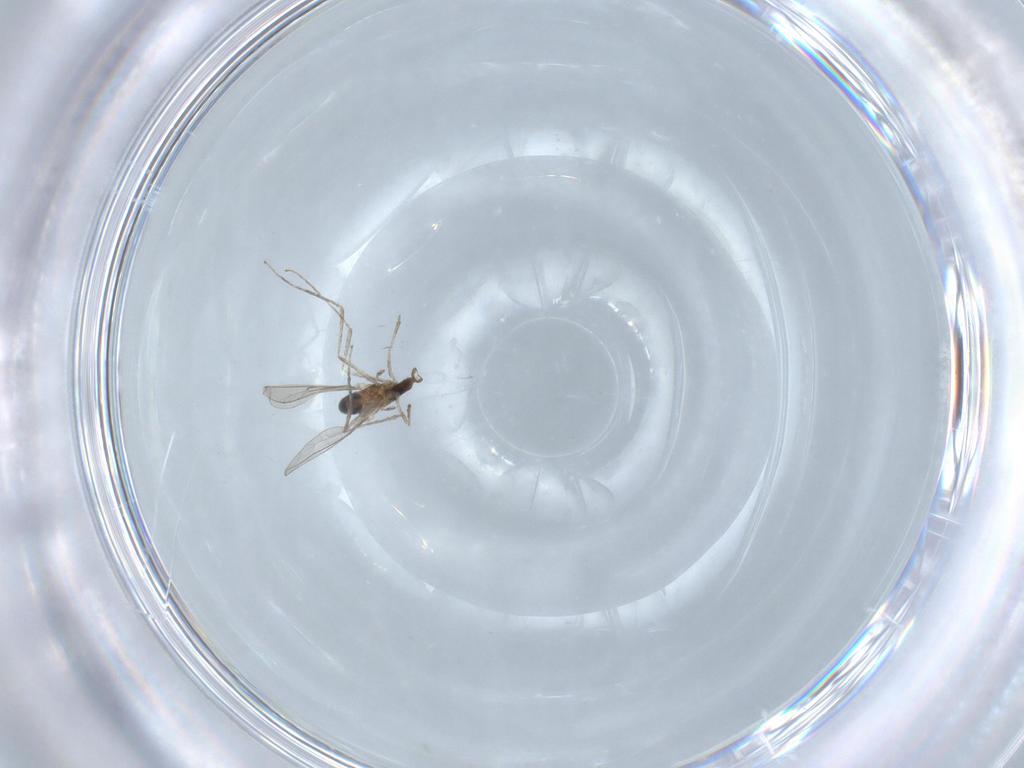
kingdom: Animalia
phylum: Arthropoda
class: Insecta
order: Diptera
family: Cecidomyiidae
